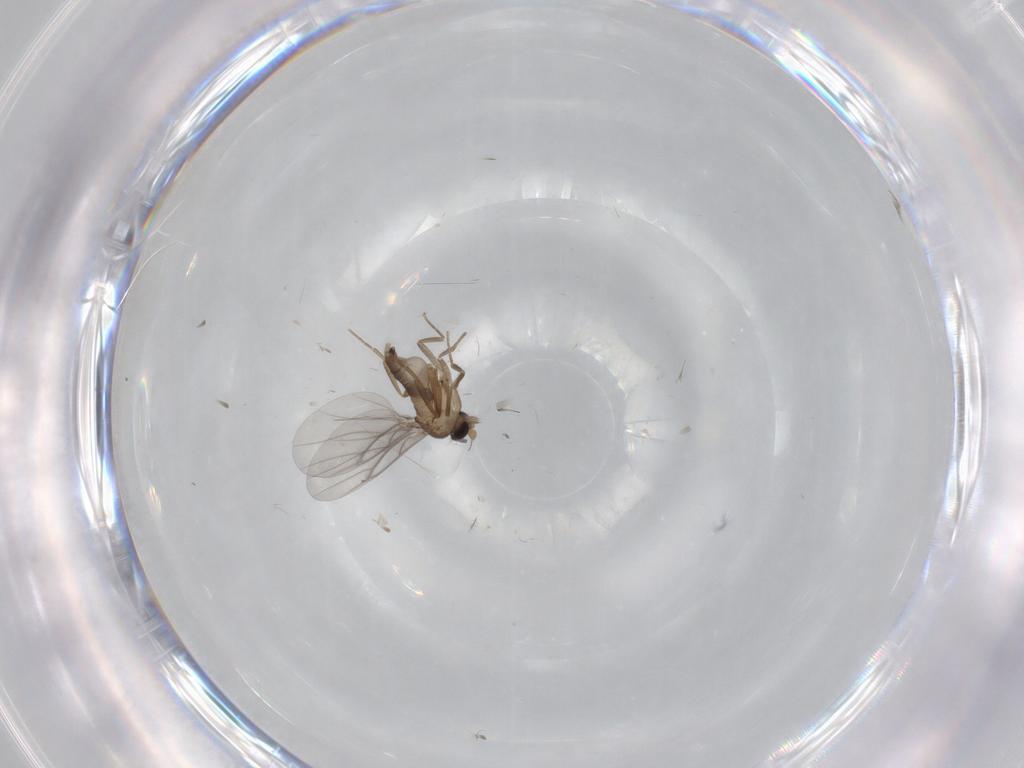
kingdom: Animalia
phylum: Arthropoda
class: Insecta
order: Diptera
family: Cecidomyiidae
